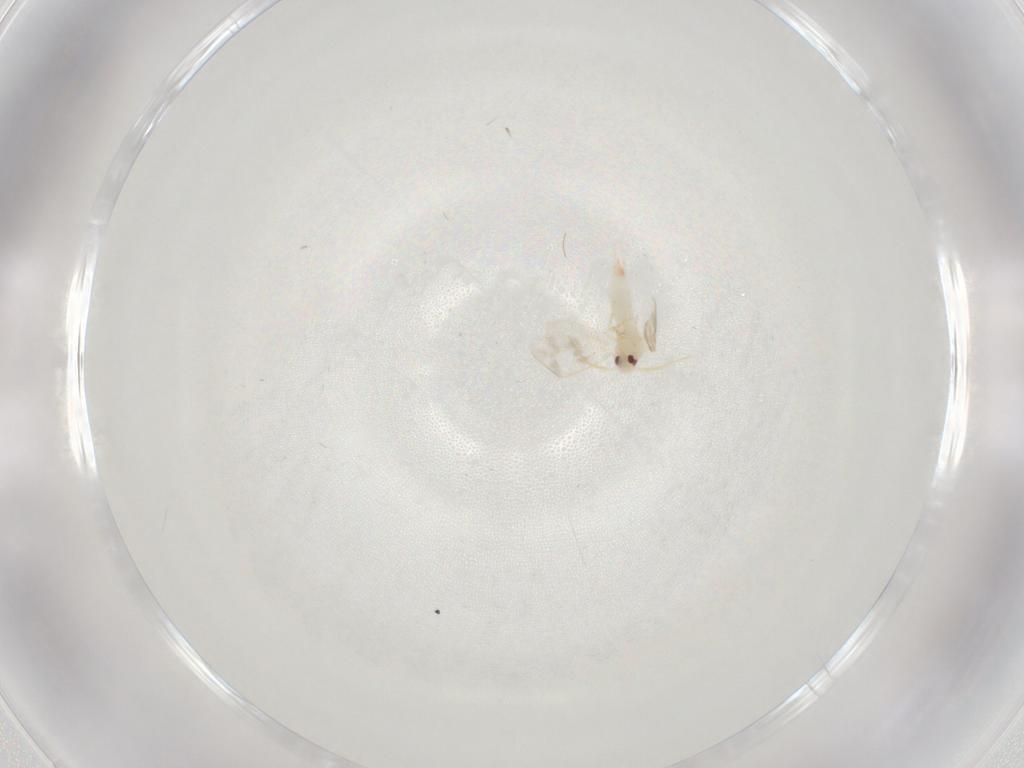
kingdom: Animalia
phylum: Arthropoda
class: Insecta
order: Hemiptera
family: Aleyrodidae
